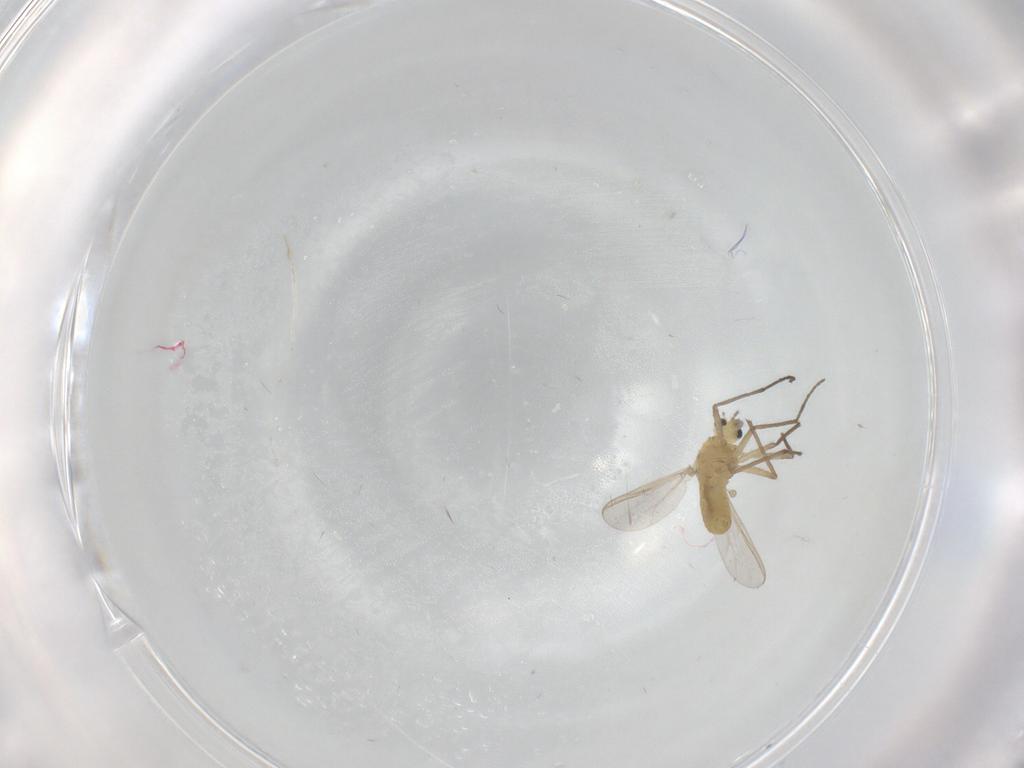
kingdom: Animalia
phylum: Arthropoda
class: Insecta
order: Diptera
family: Chironomidae
